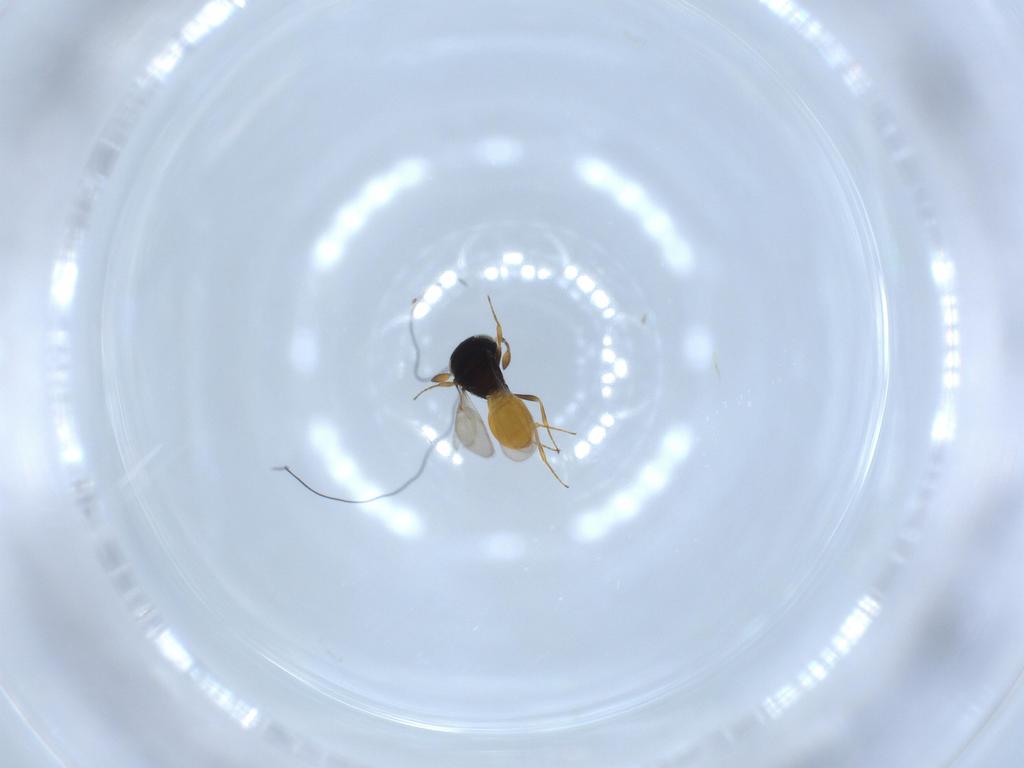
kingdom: Animalia
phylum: Arthropoda
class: Insecta
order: Hymenoptera
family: Scelionidae
